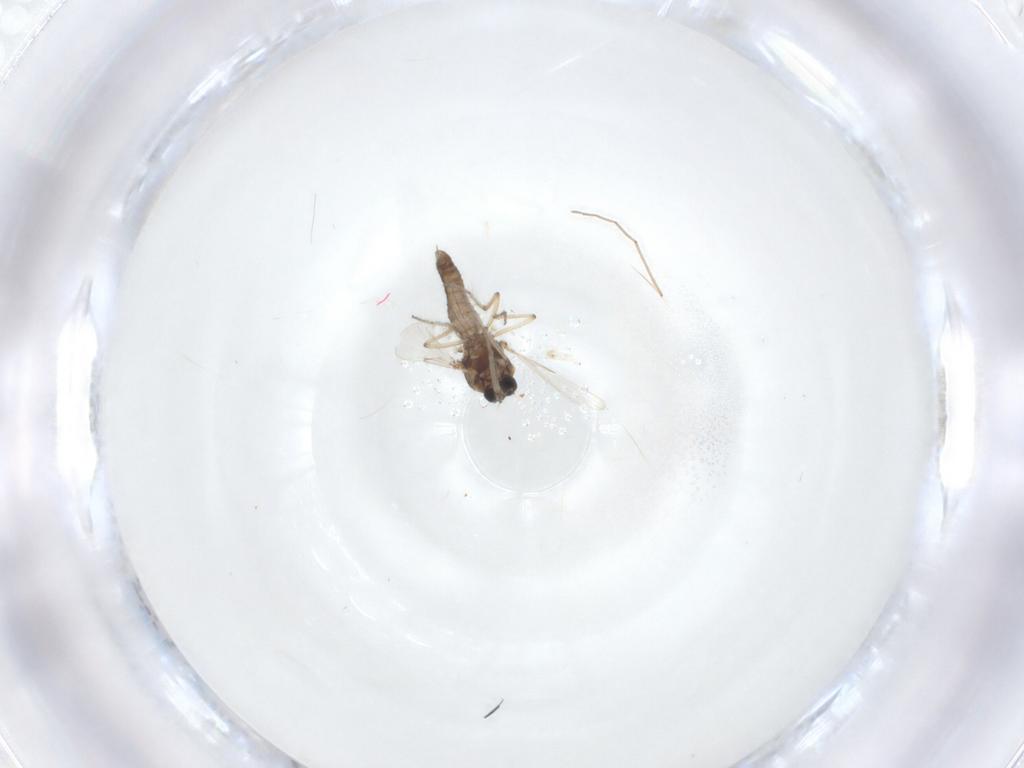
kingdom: Animalia
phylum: Arthropoda
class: Insecta
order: Diptera
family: Ceratopogonidae
